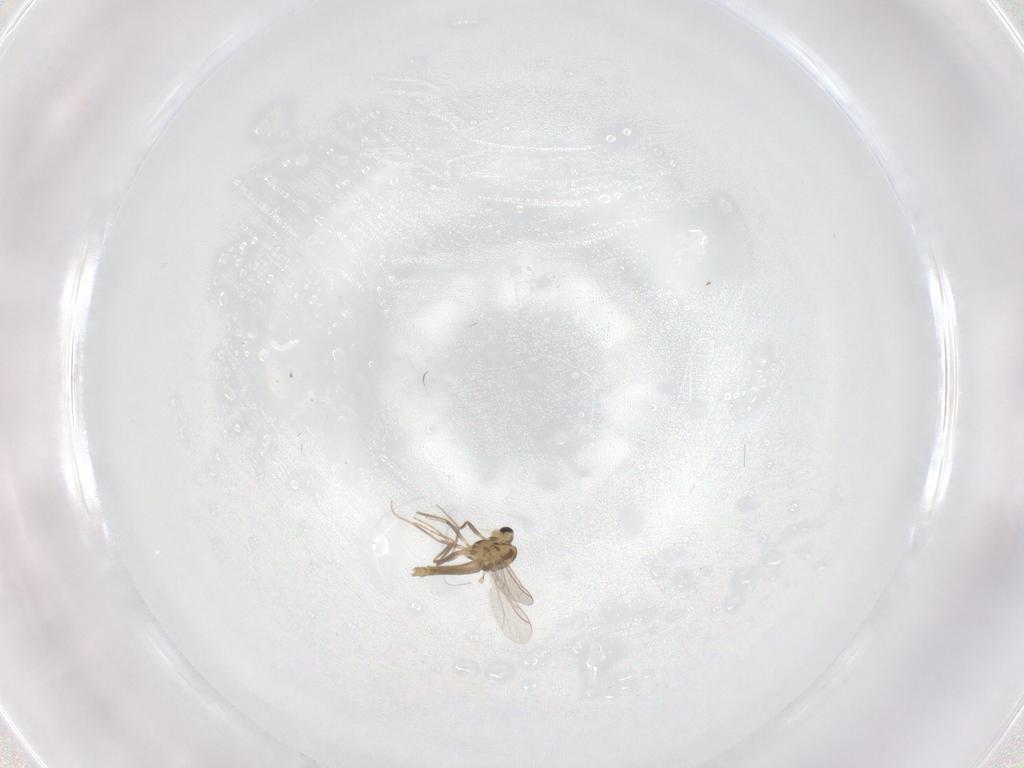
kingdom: Animalia
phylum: Arthropoda
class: Insecta
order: Diptera
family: Chironomidae
